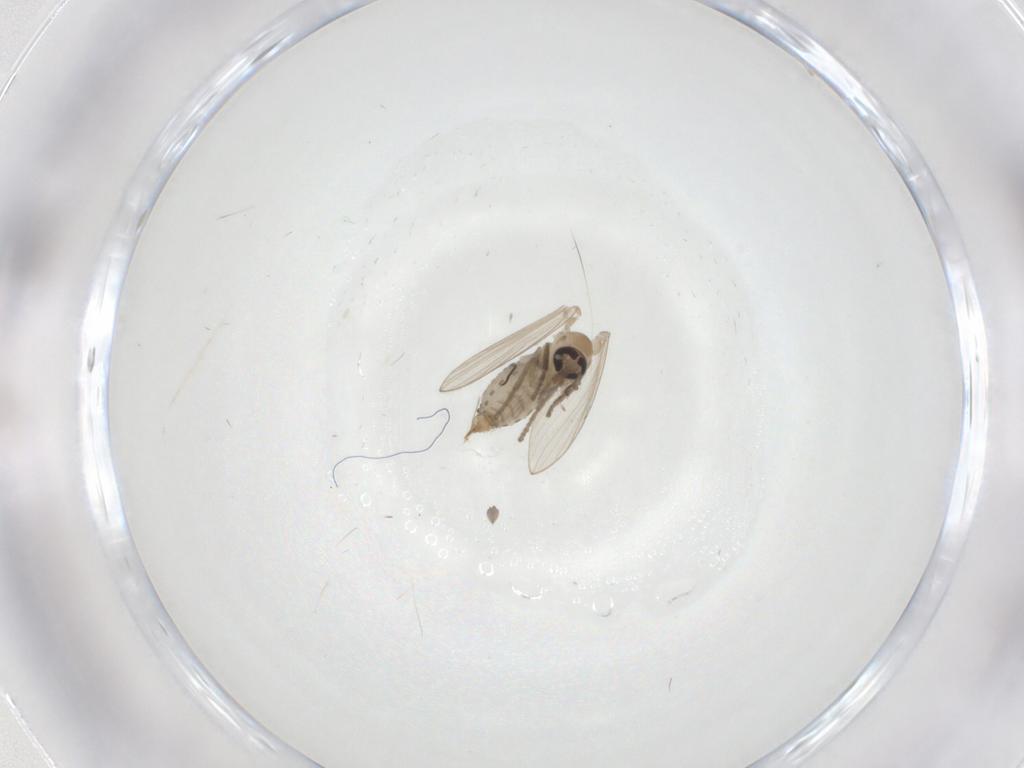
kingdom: Animalia
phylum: Arthropoda
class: Insecta
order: Diptera
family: Psychodidae
